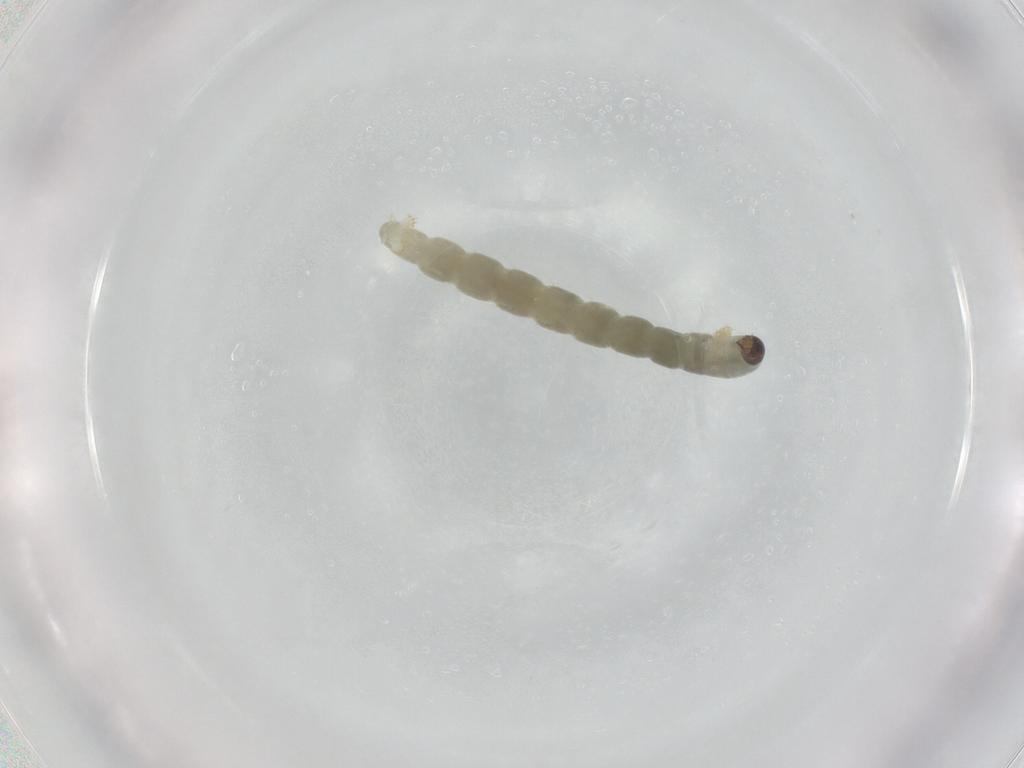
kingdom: Animalia
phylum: Arthropoda
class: Insecta
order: Diptera
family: Chironomidae
